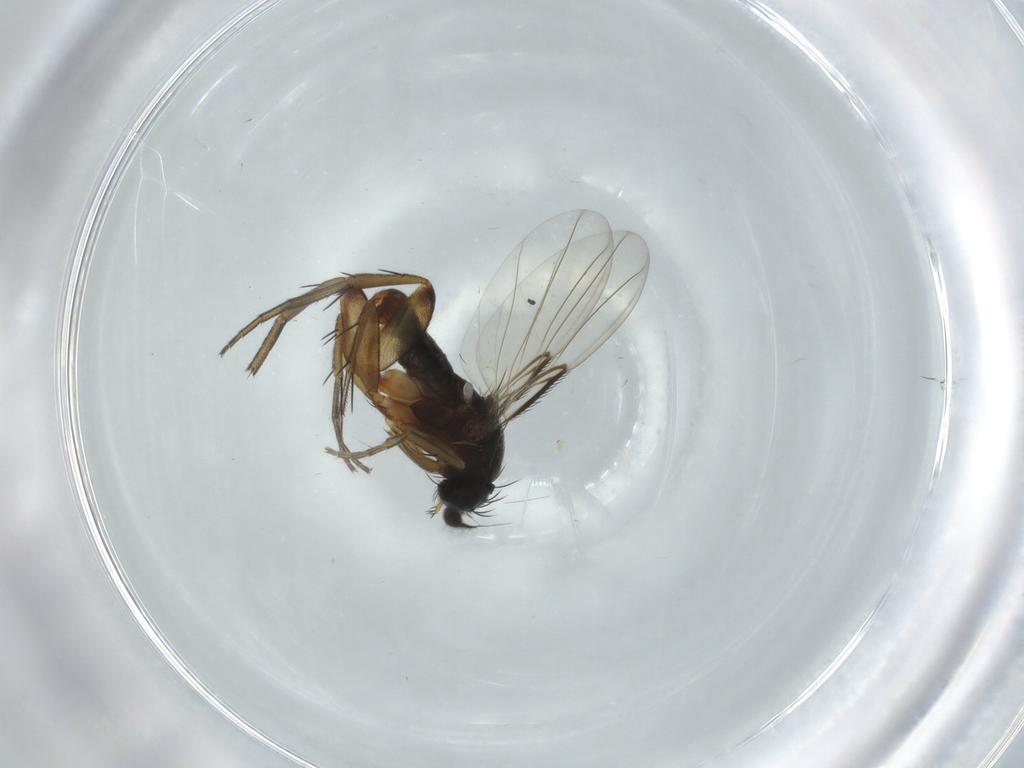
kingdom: Animalia
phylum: Arthropoda
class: Insecta
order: Diptera
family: Phoridae
